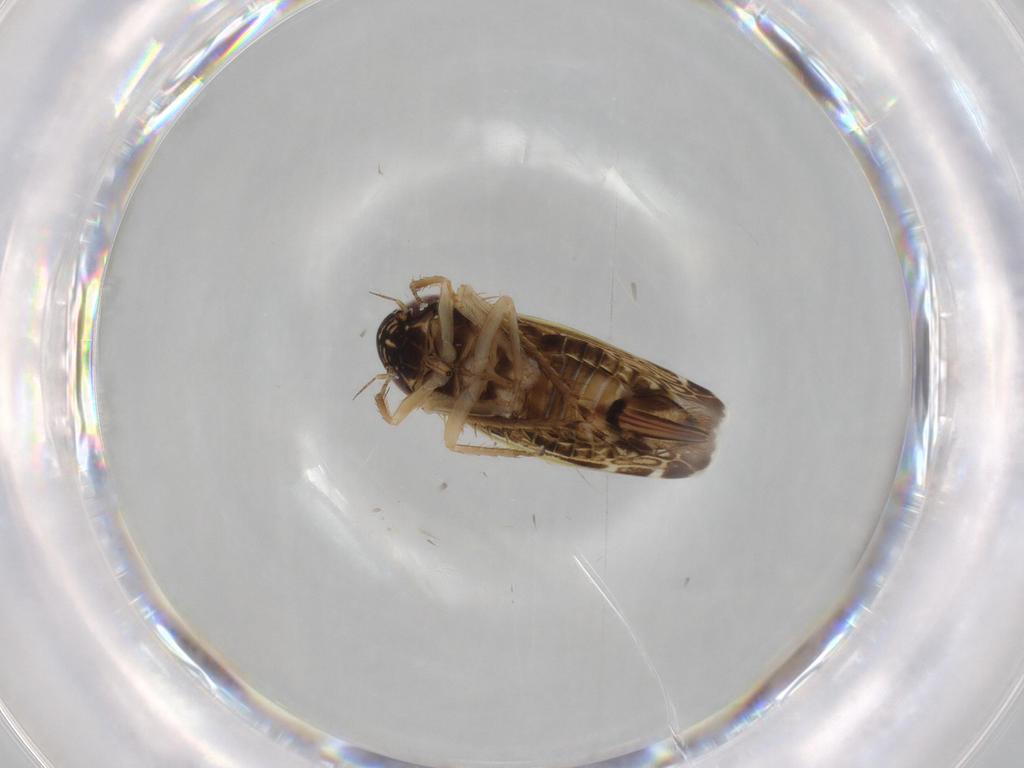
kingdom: Animalia
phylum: Arthropoda
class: Insecta
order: Hemiptera
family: Cicadellidae
